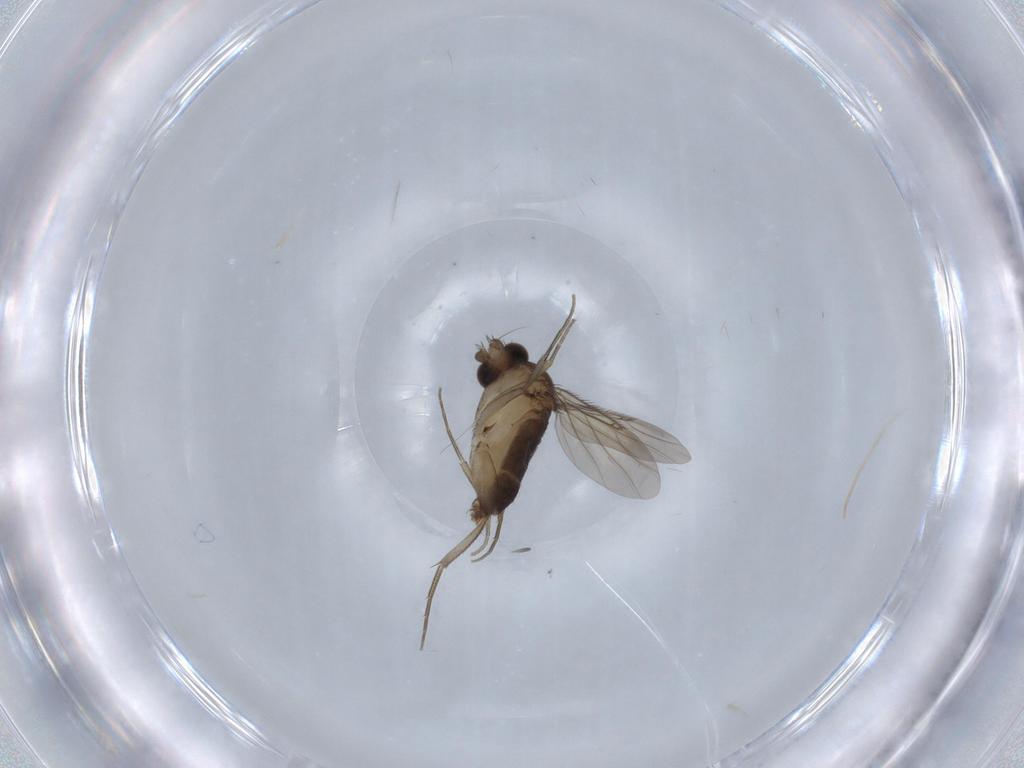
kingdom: Animalia
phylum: Arthropoda
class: Insecta
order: Diptera
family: Phoridae
